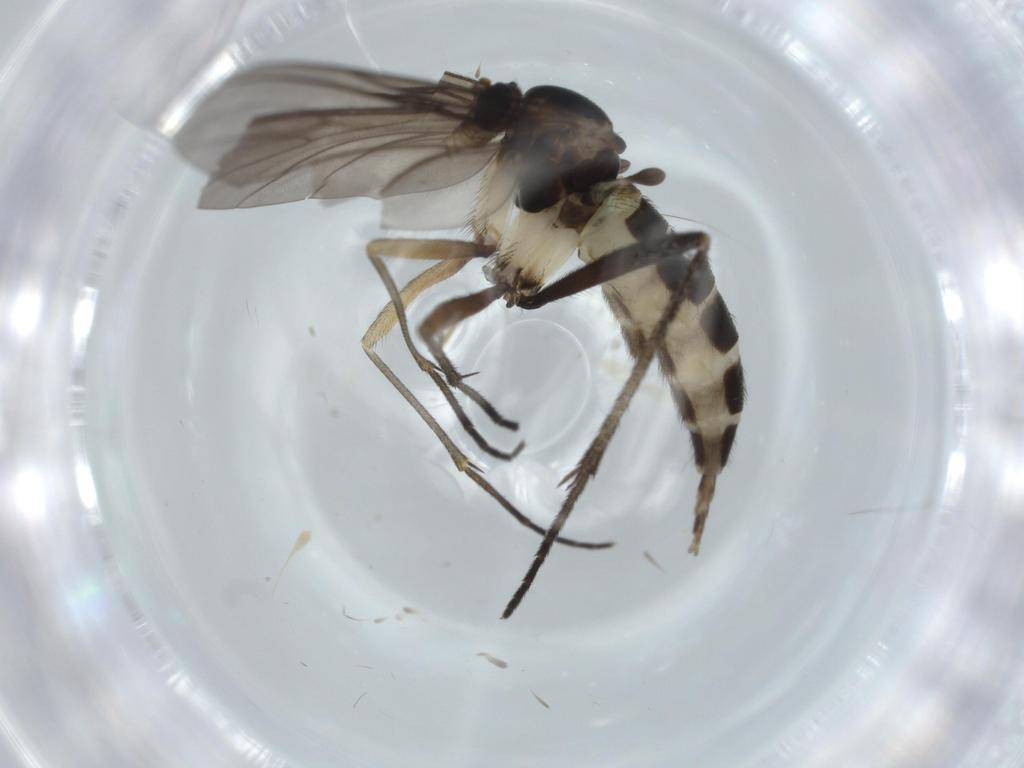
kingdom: Animalia
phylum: Arthropoda
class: Insecta
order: Diptera
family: Sciaridae
